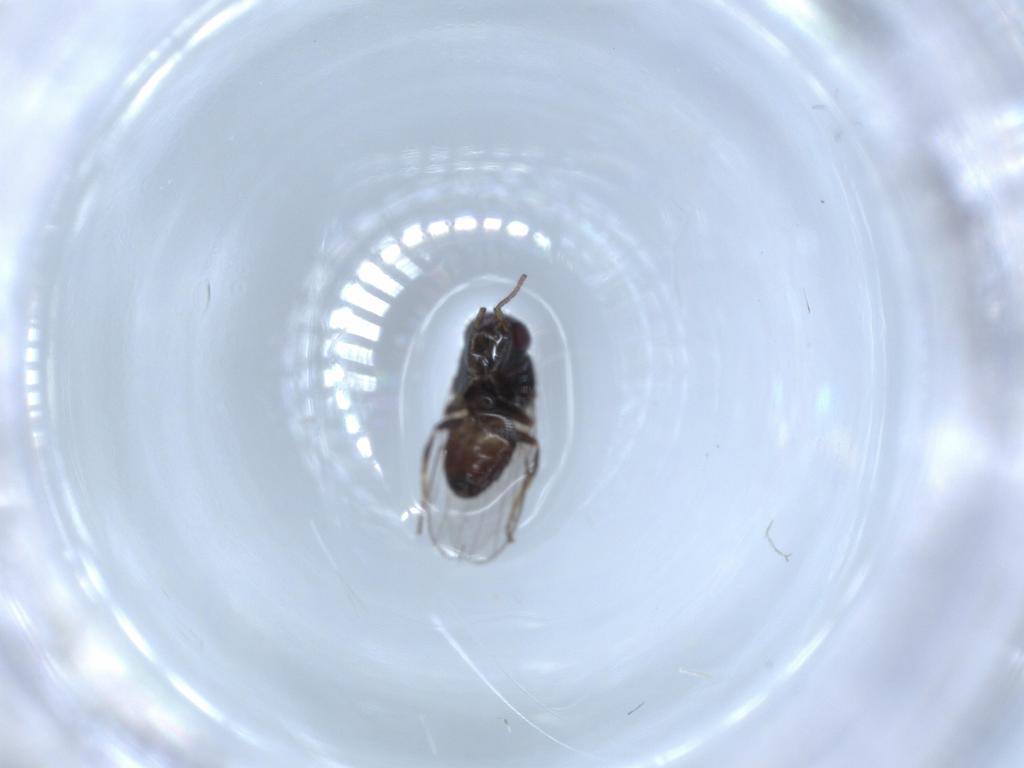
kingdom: Animalia
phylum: Arthropoda
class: Insecta
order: Diptera
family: Chloropidae
